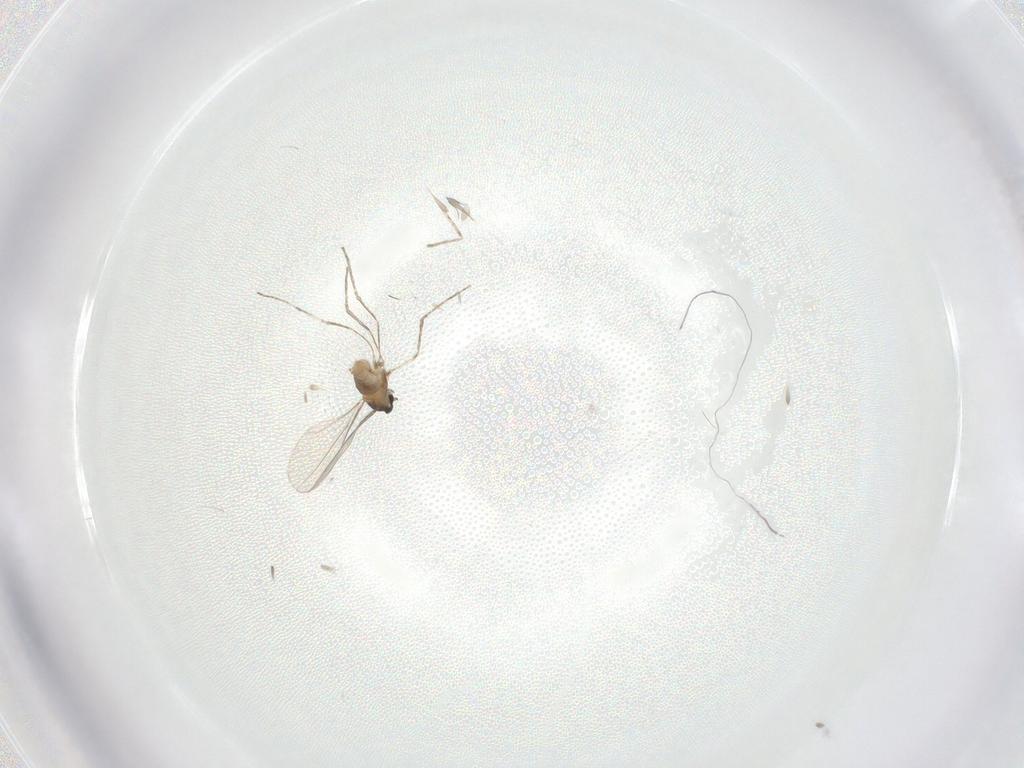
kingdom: Animalia
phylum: Arthropoda
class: Insecta
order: Diptera
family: Cecidomyiidae
